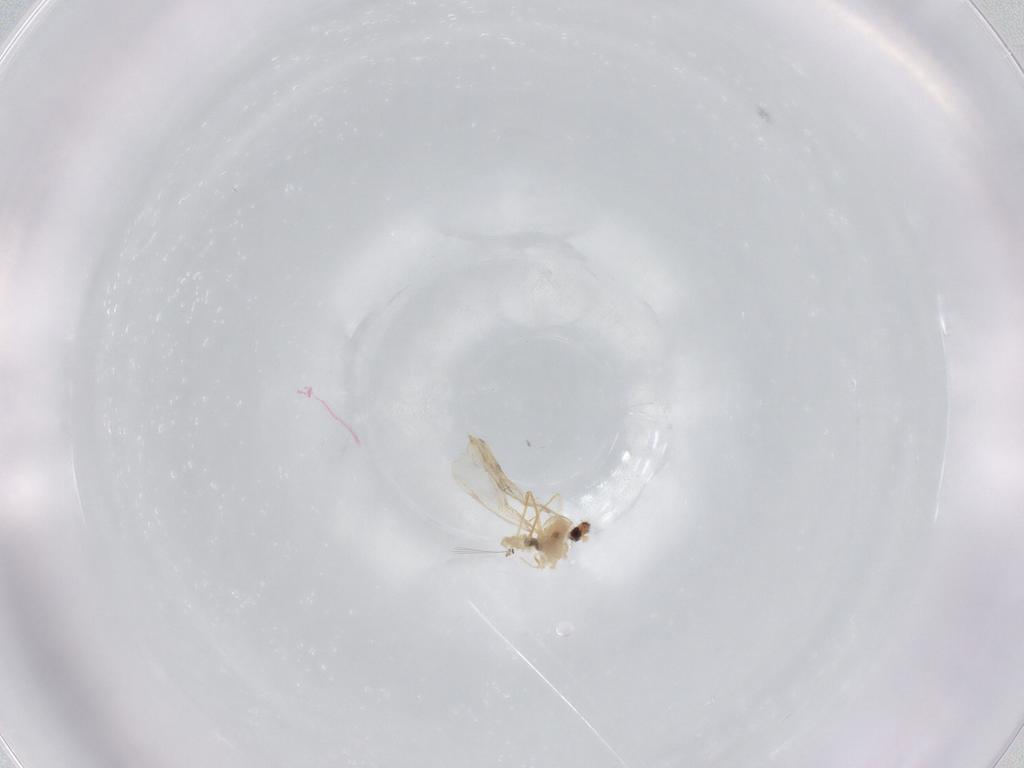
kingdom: Animalia
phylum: Arthropoda
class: Insecta
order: Diptera
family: Cecidomyiidae
